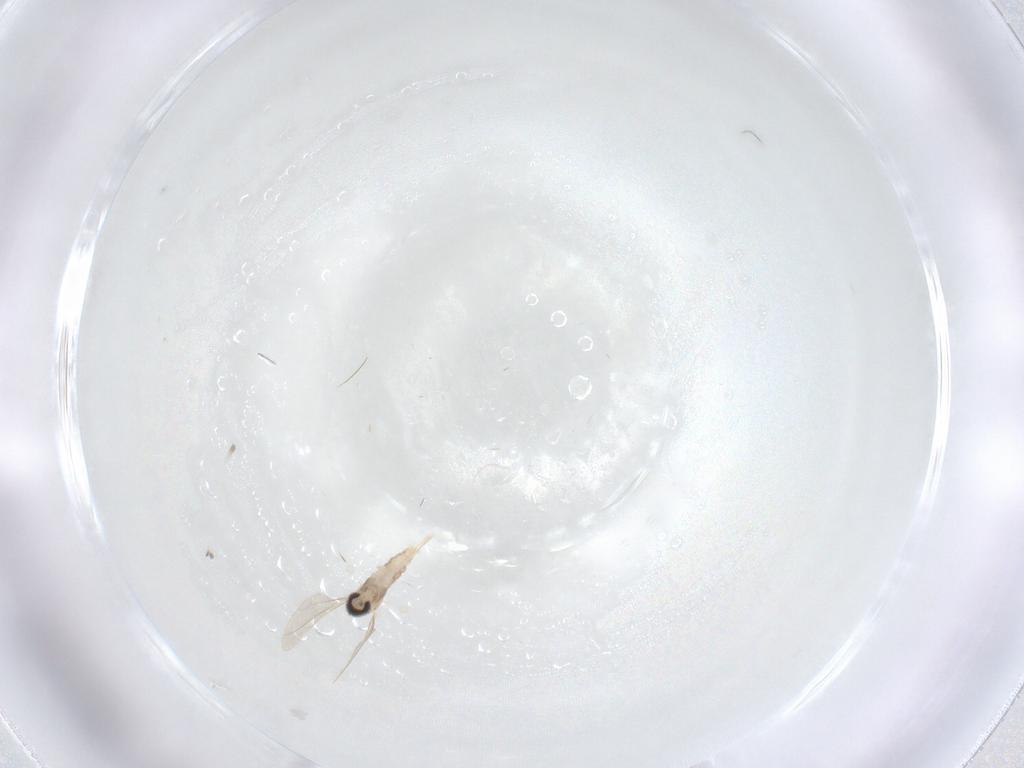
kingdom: Animalia
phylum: Arthropoda
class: Insecta
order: Diptera
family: Cecidomyiidae
